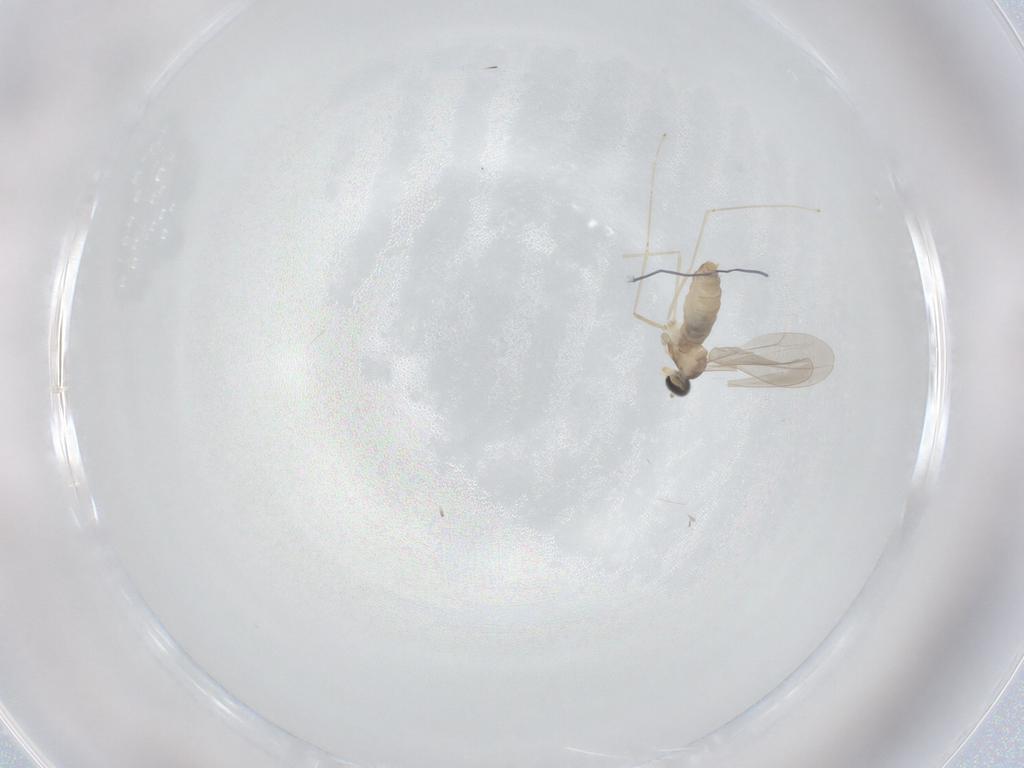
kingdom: Animalia
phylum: Arthropoda
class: Insecta
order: Diptera
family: Dolichopodidae
